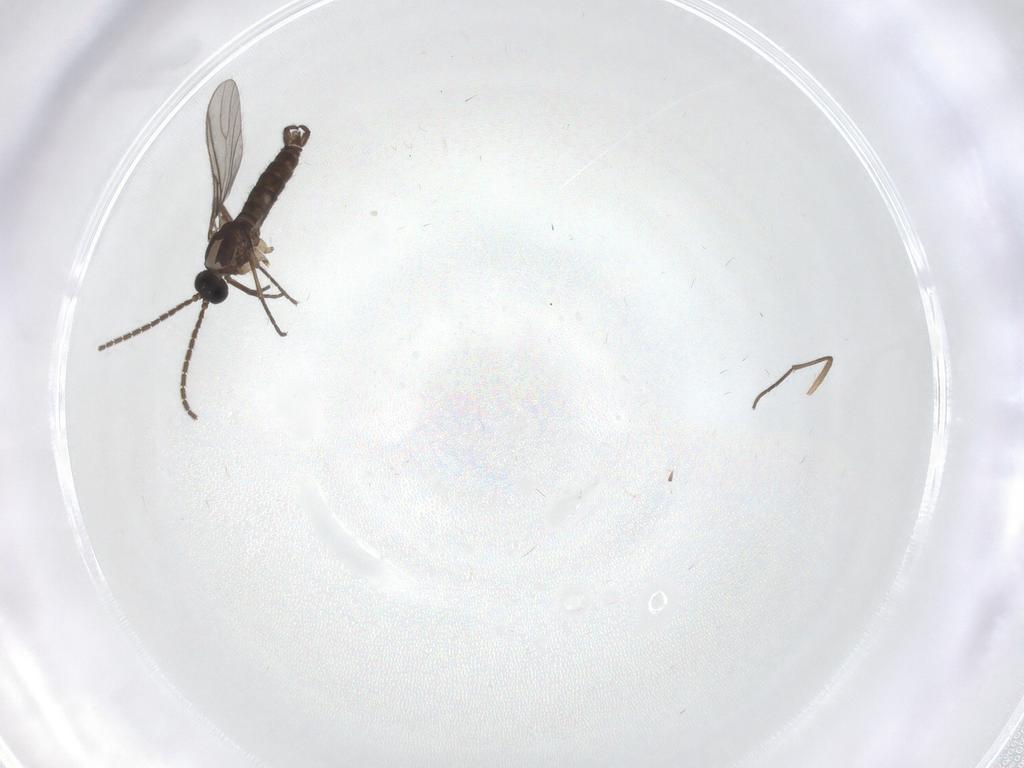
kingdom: Animalia
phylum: Arthropoda
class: Insecta
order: Diptera
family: Sciaridae
